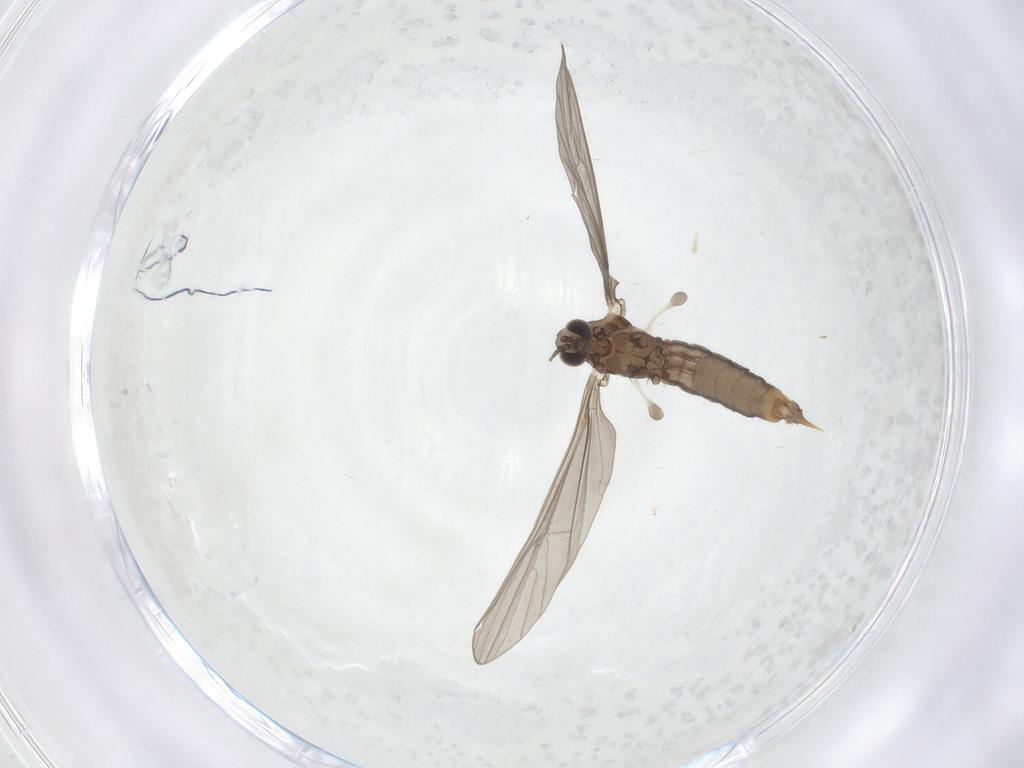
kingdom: Animalia
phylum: Arthropoda
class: Insecta
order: Diptera
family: Limoniidae
